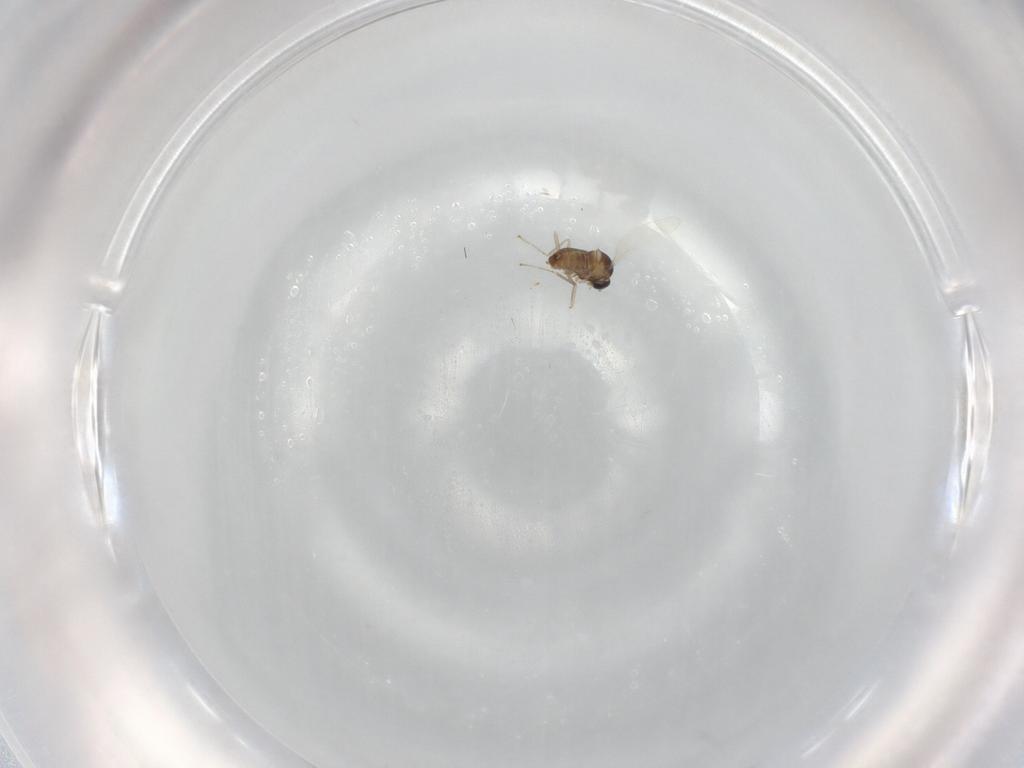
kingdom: Animalia
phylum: Arthropoda
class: Insecta
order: Diptera
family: Cecidomyiidae
